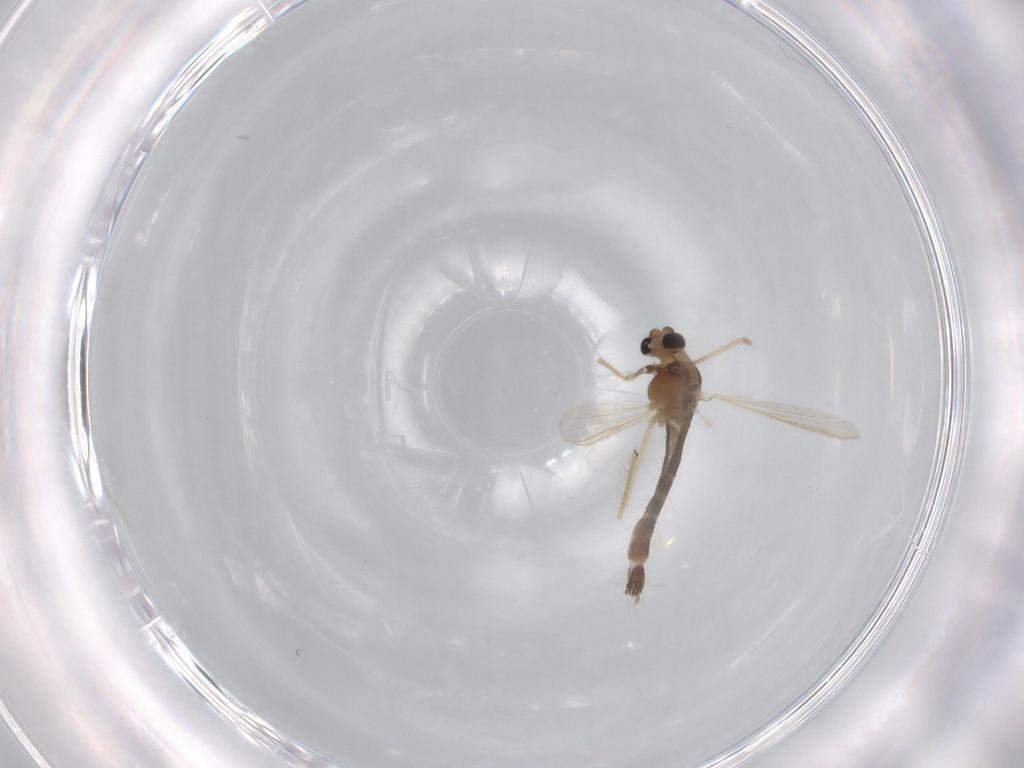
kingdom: Animalia
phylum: Arthropoda
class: Insecta
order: Diptera
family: Chironomidae
